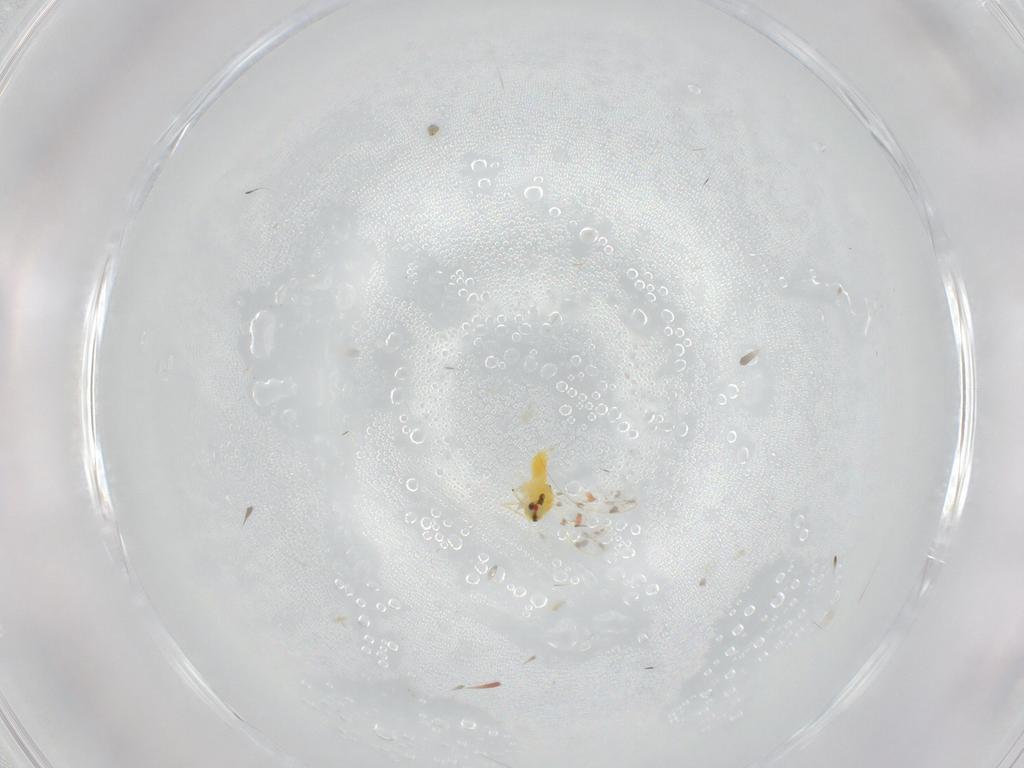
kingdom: Animalia
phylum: Arthropoda
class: Insecta
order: Hemiptera
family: Aleyrodidae
